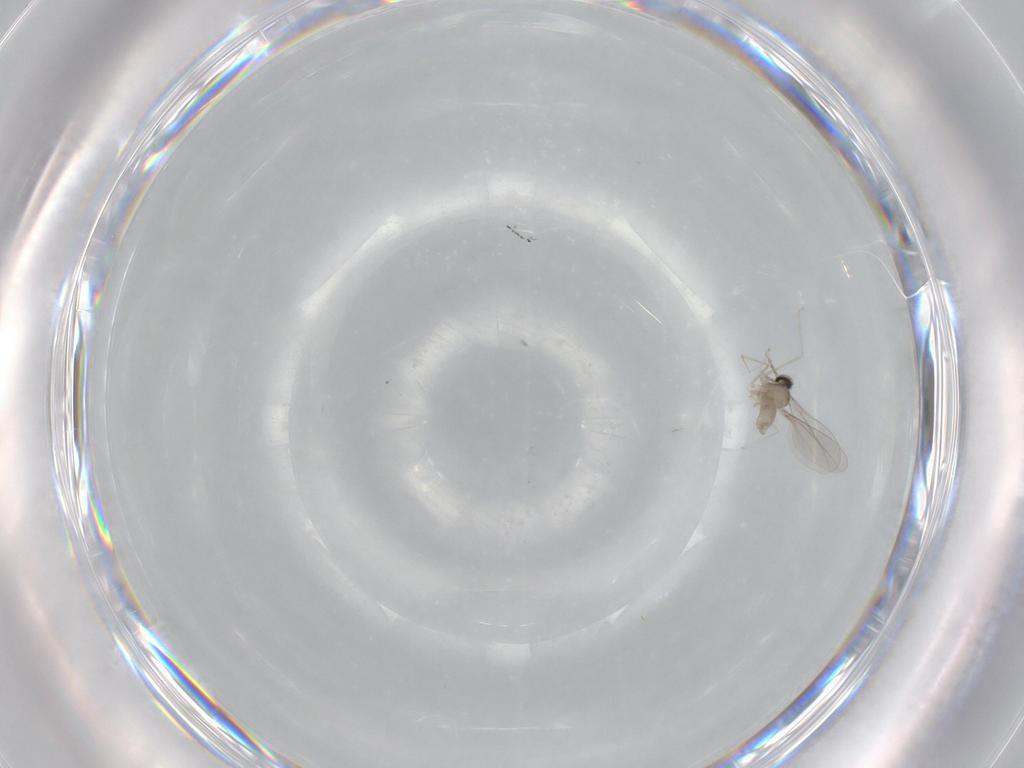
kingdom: Animalia
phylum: Arthropoda
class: Insecta
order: Diptera
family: Cecidomyiidae
